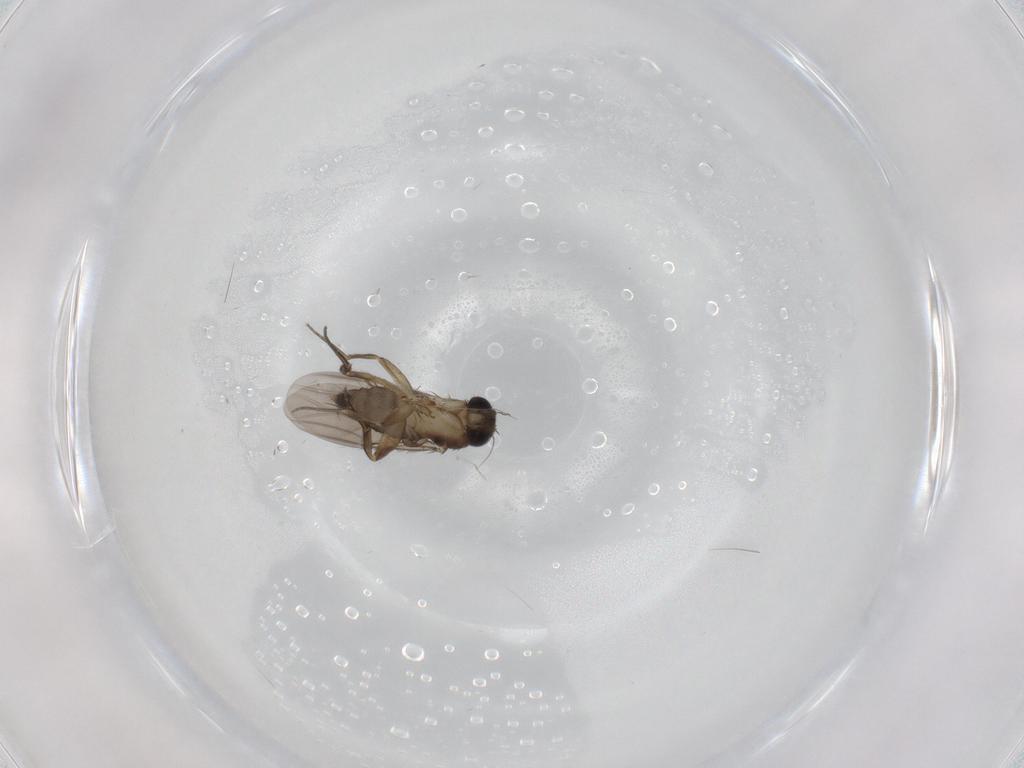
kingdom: Animalia
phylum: Arthropoda
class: Insecta
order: Diptera
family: Phoridae
